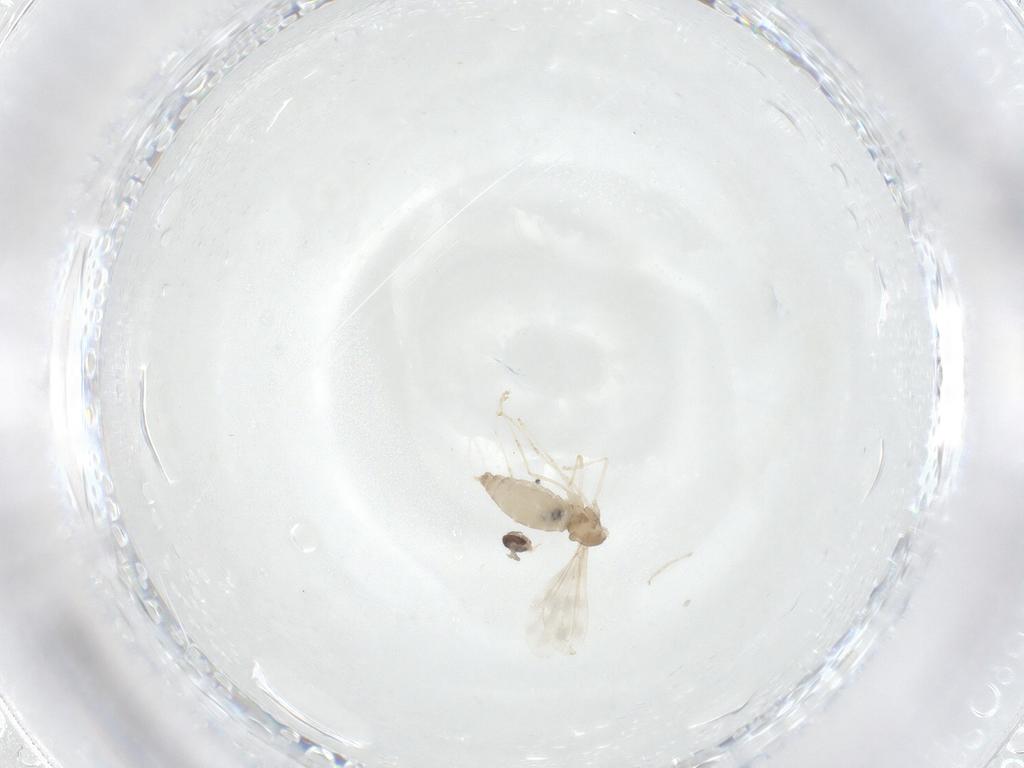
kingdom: Animalia
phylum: Arthropoda
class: Insecta
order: Diptera
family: Cecidomyiidae
